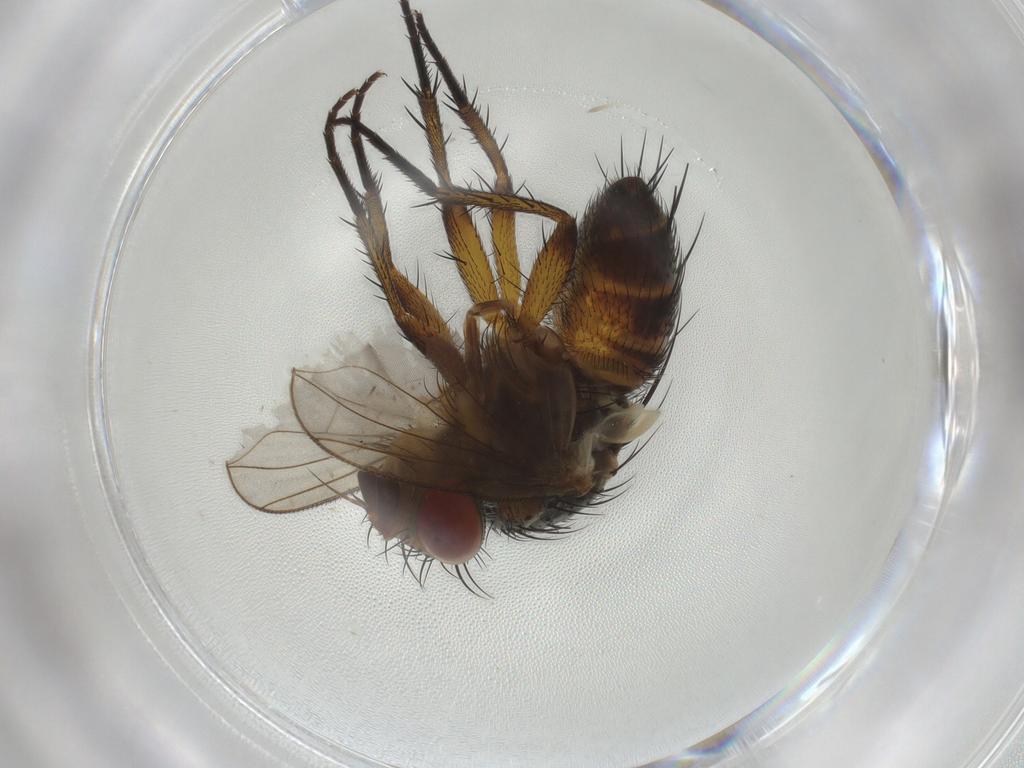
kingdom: Animalia
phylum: Arthropoda
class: Insecta
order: Diptera
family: Tachinidae
